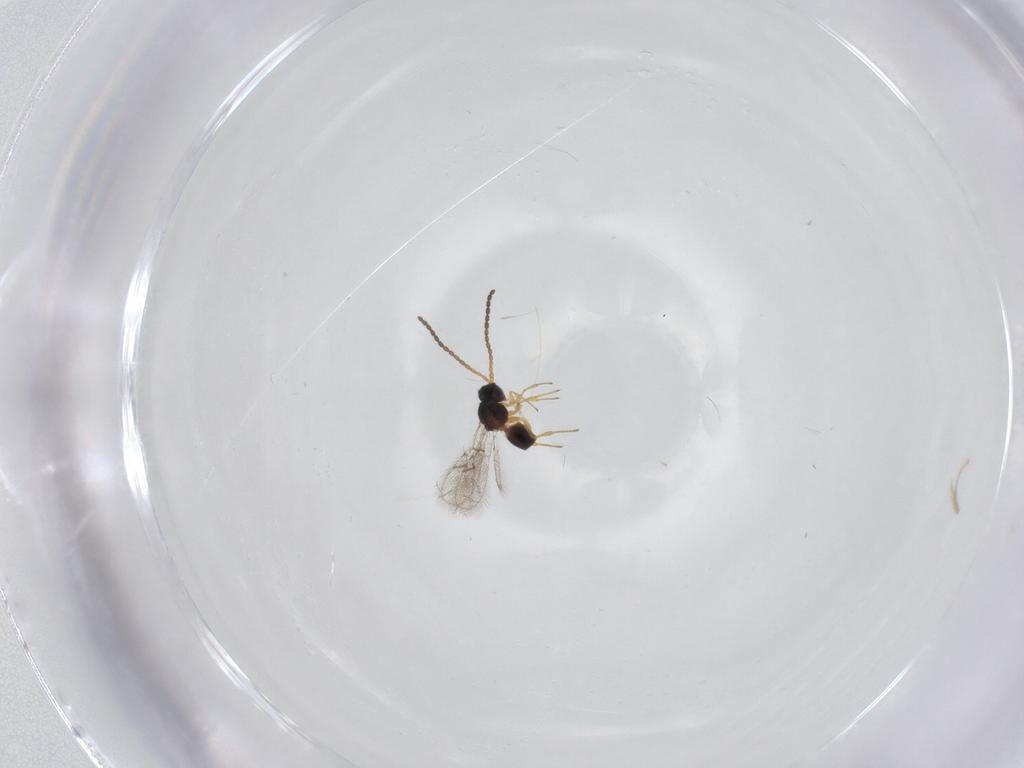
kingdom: Animalia
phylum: Arthropoda
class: Insecta
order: Hymenoptera
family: Figitidae
